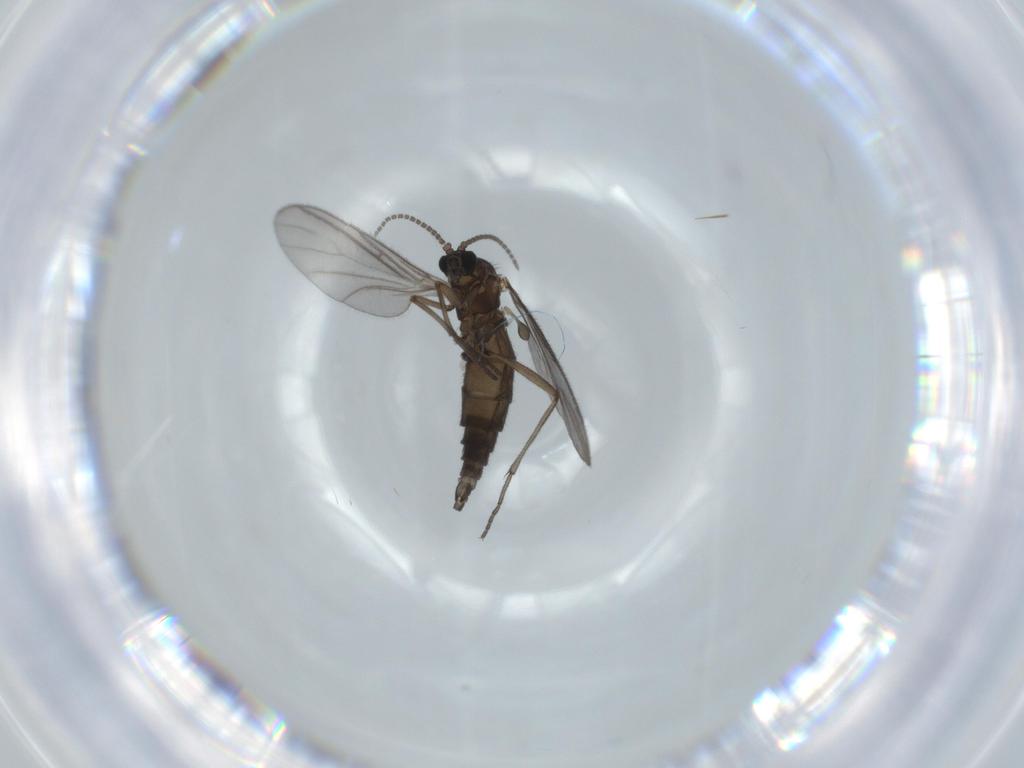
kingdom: Animalia
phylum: Arthropoda
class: Insecta
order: Diptera
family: Sciaridae
